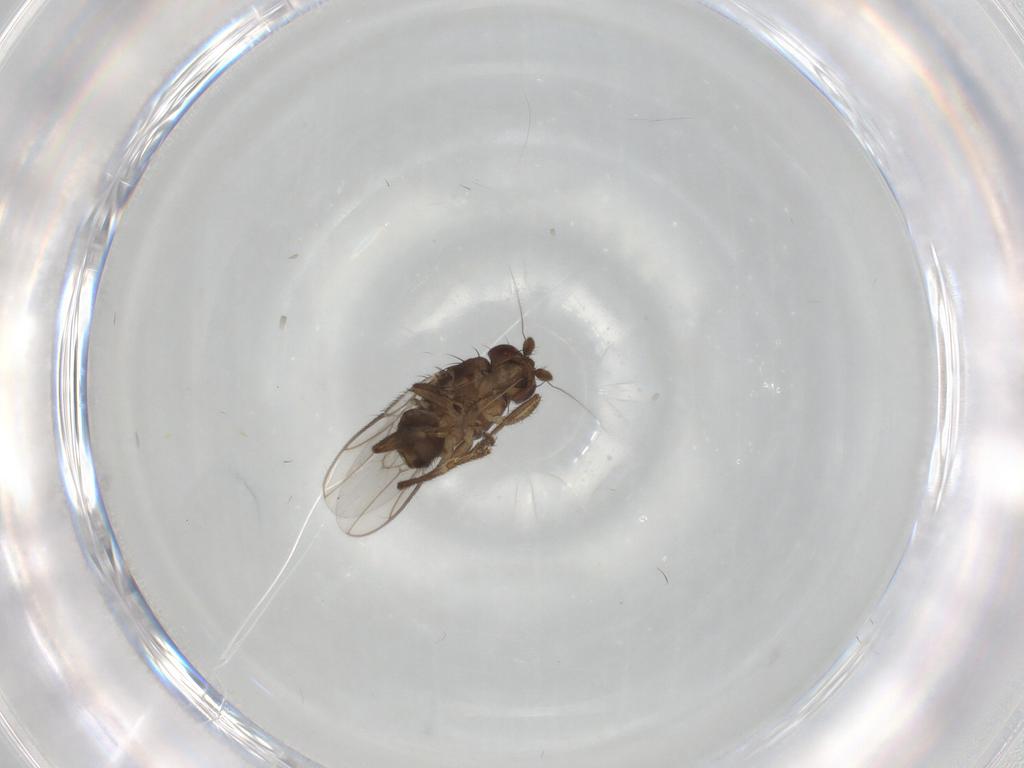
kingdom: Animalia
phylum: Arthropoda
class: Insecta
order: Diptera
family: Sphaeroceridae
